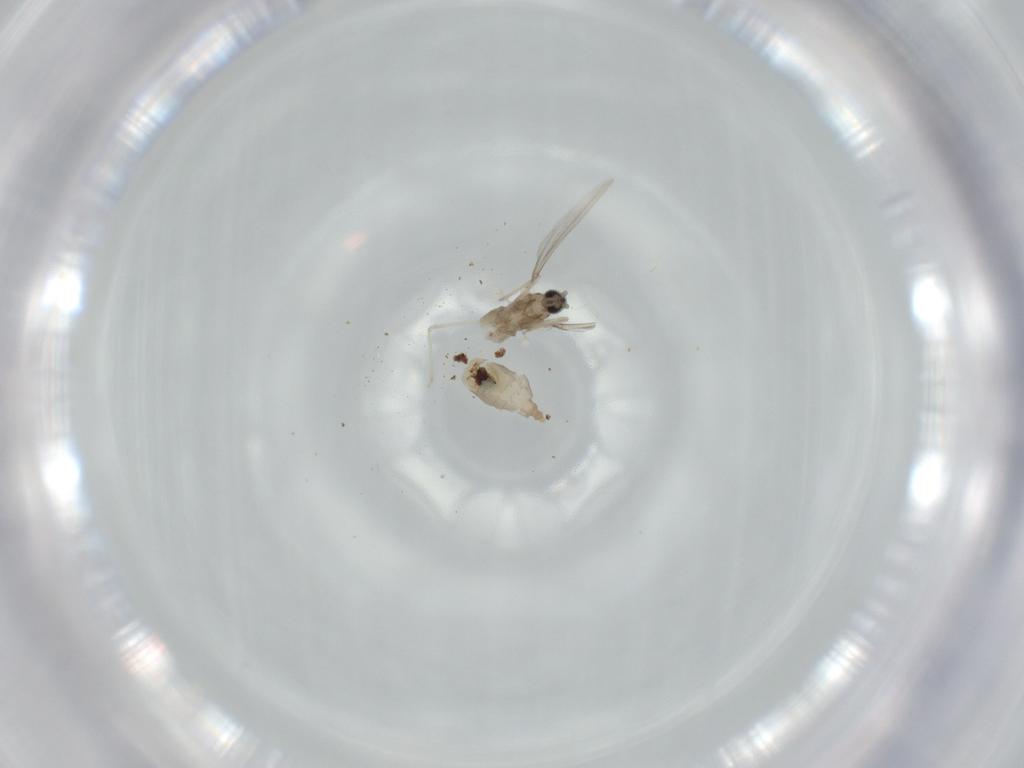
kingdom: Animalia
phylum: Arthropoda
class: Insecta
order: Diptera
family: Cecidomyiidae
